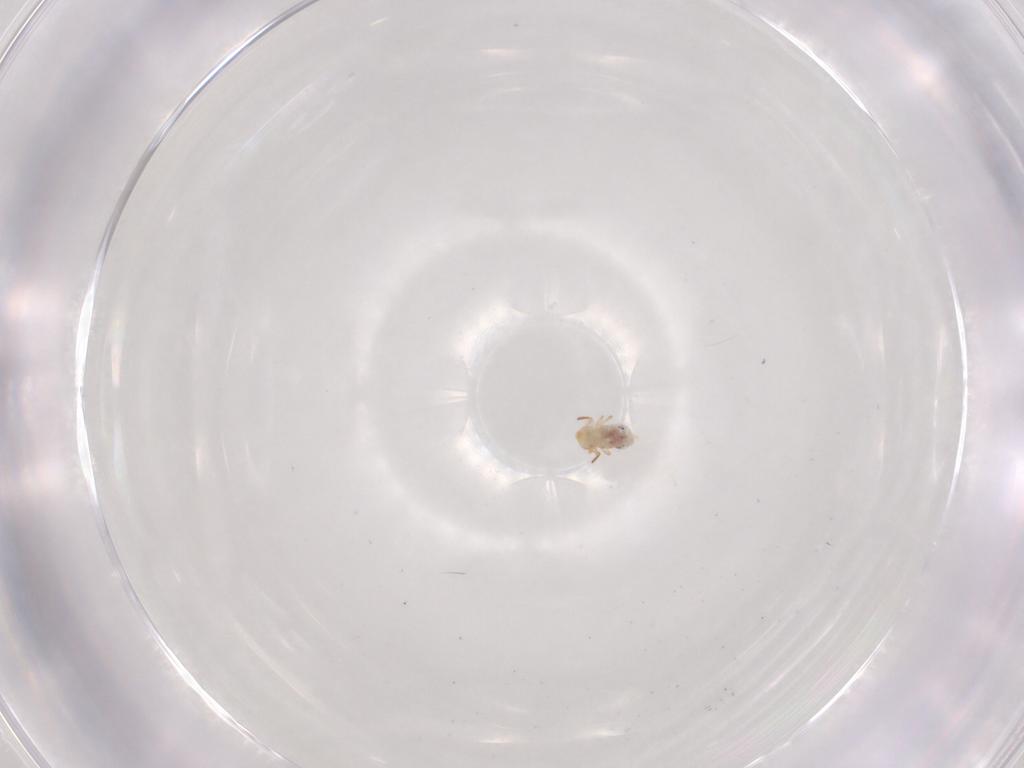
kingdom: Animalia
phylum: Arthropoda
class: Collembola
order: Symphypleona
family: Bourletiellidae
